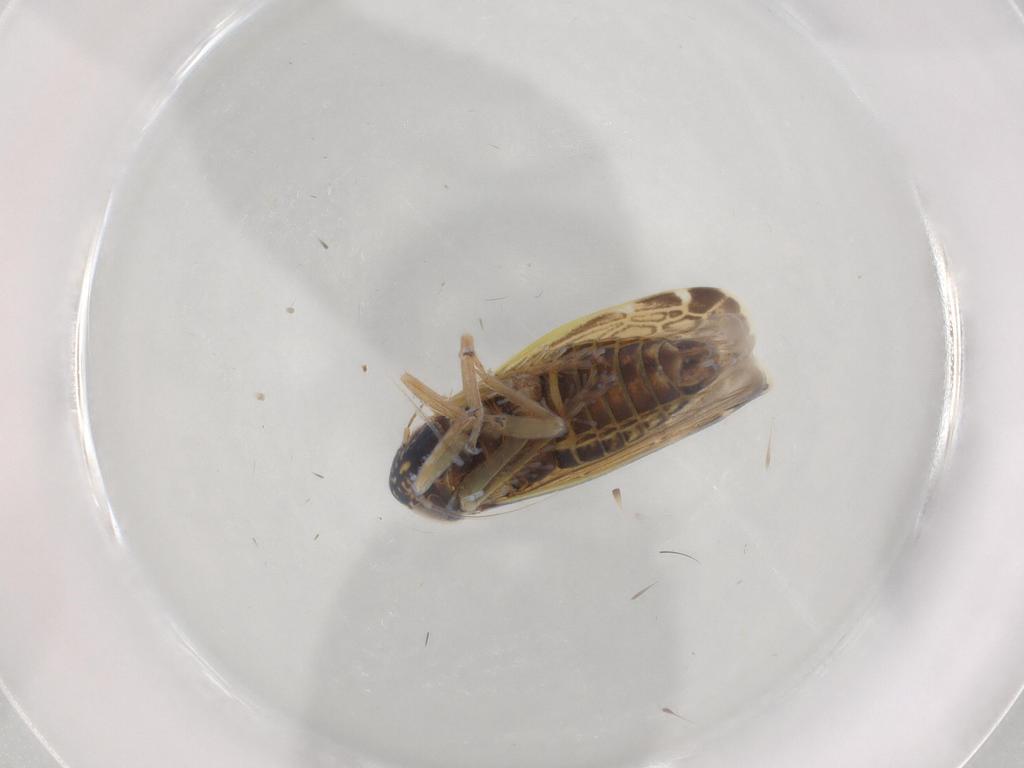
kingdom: Animalia
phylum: Arthropoda
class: Insecta
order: Hemiptera
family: Cicadellidae
